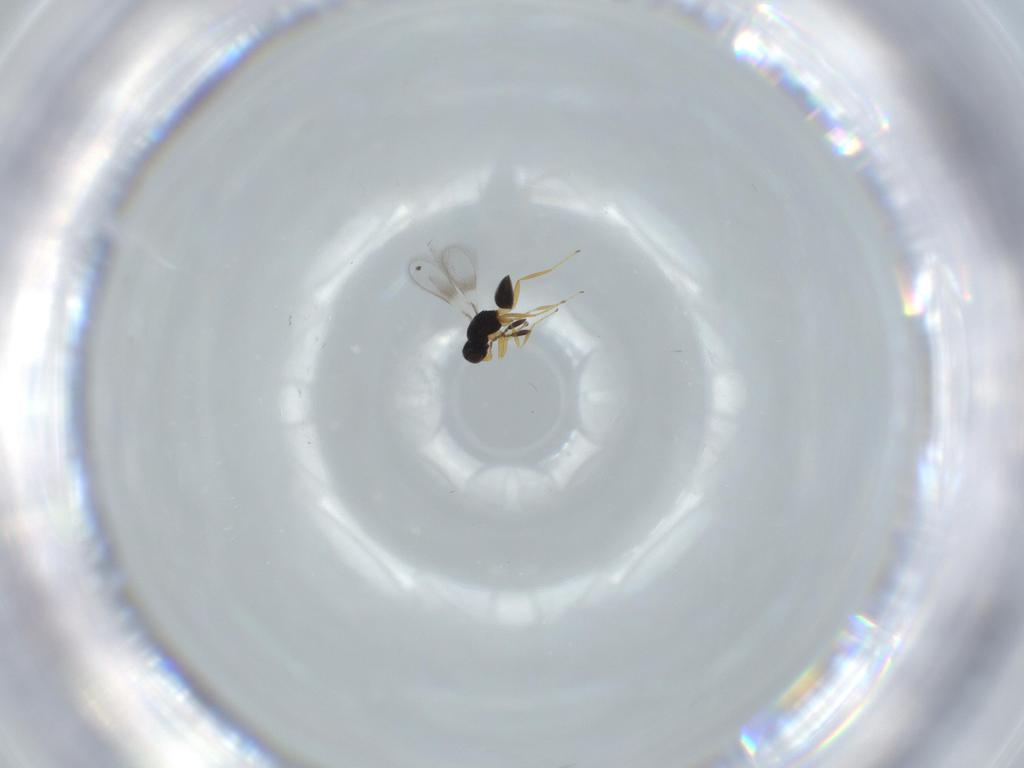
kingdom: Animalia
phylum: Arthropoda
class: Insecta
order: Hymenoptera
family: Mymaridae
